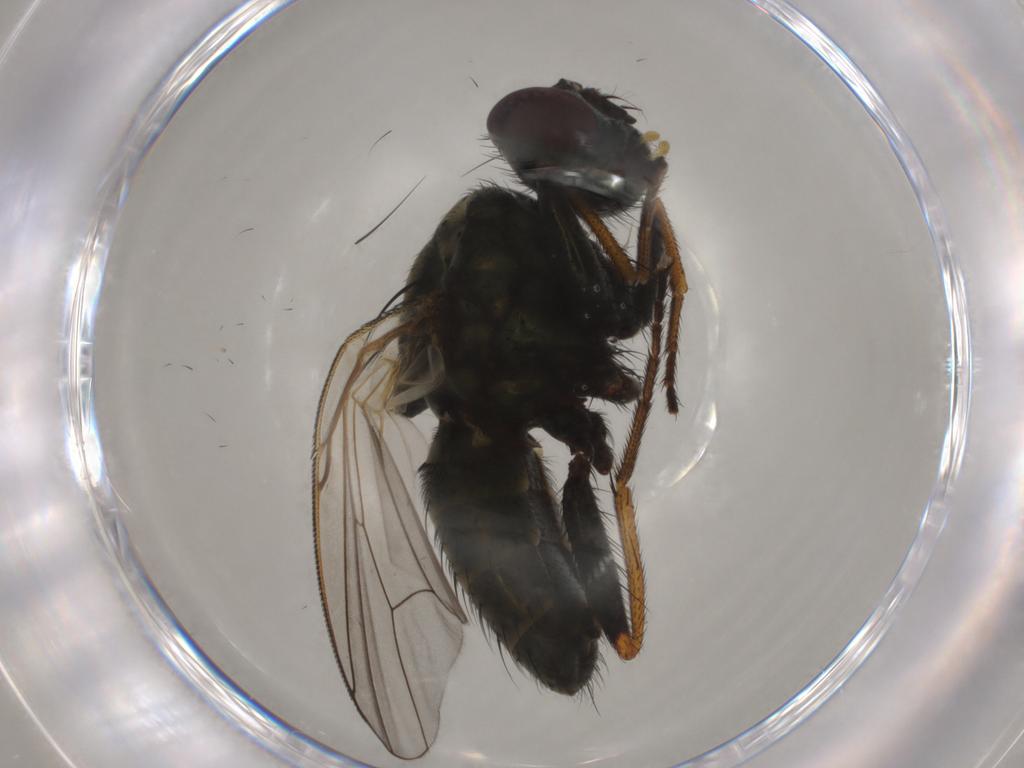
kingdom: Animalia
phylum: Arthropoda
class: Insecta
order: Diptera
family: Muscidae
